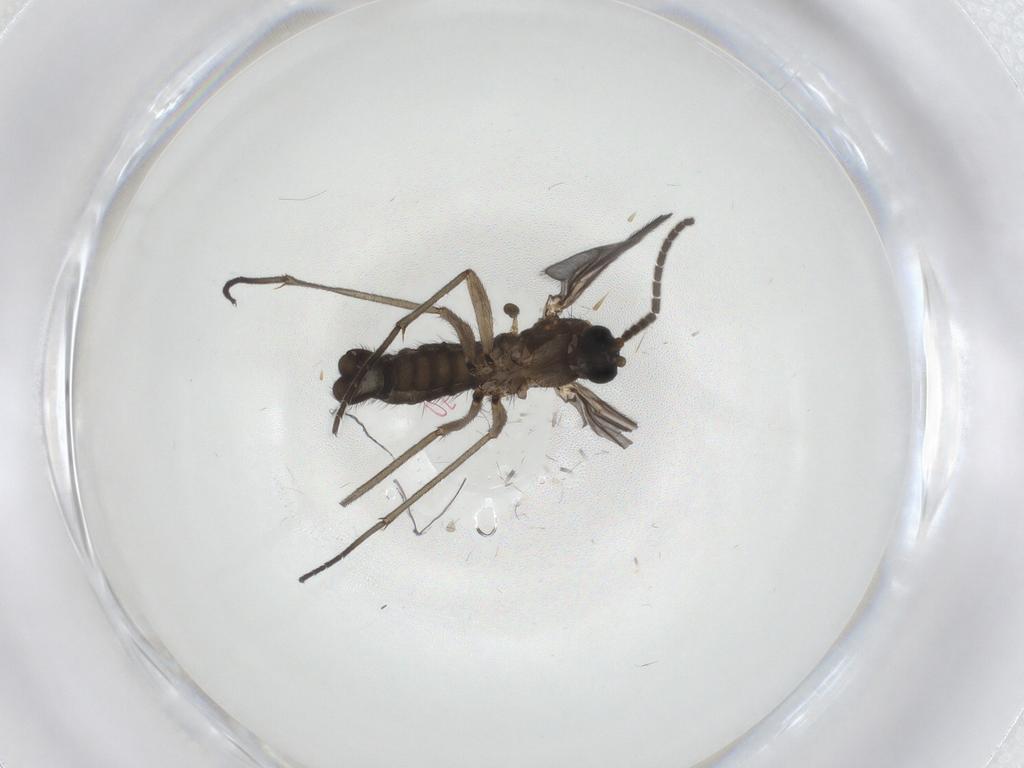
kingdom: Animalia
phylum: Arthropoda
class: Insecta
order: Diptera
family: Sciaridae
